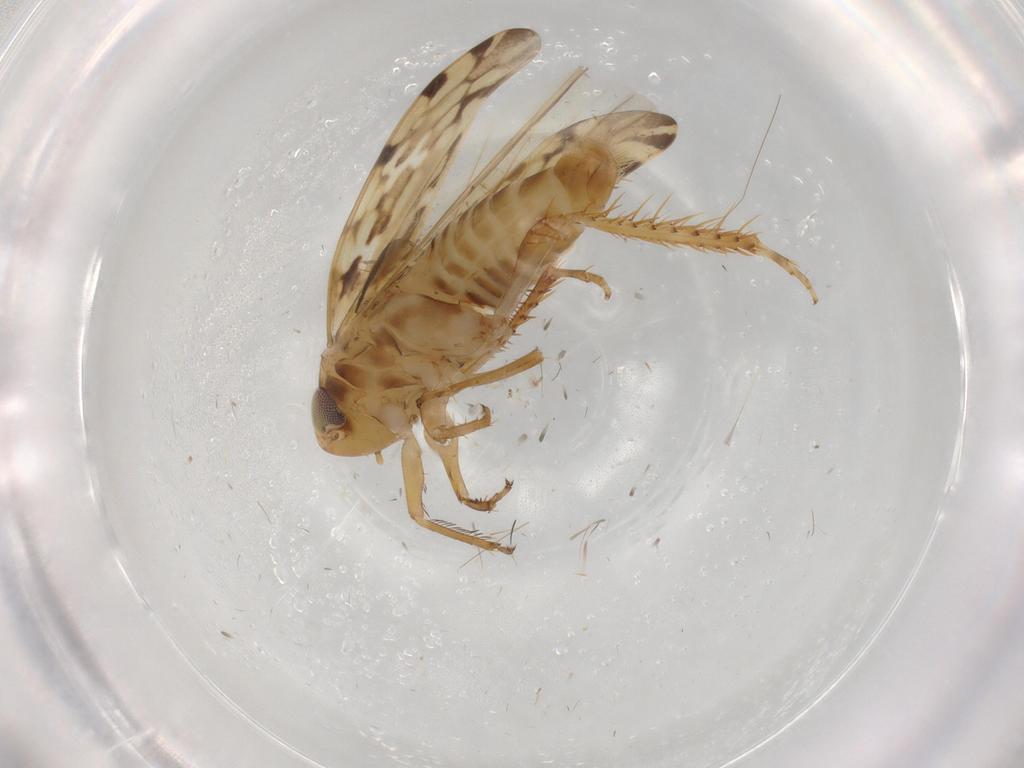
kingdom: Animalia
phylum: Arthropoda
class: Insecta
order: Hemiptera
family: Cicadellidae
